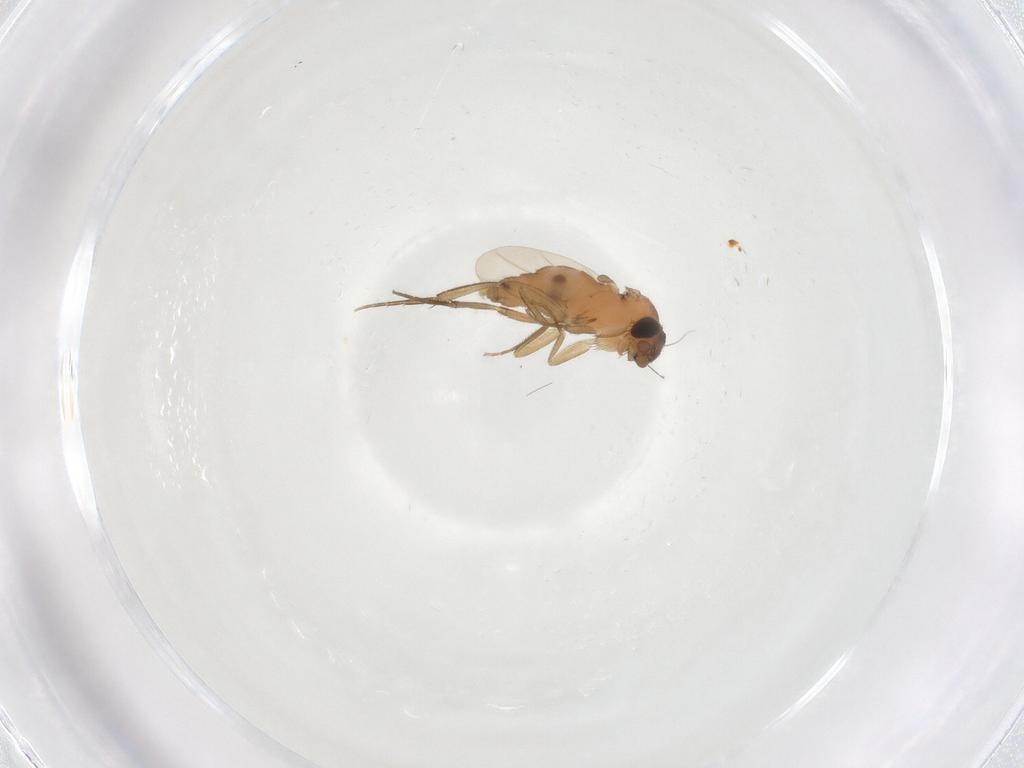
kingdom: Animalia
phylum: Arthropoda
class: Insecta
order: Diptera
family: Phoridae
